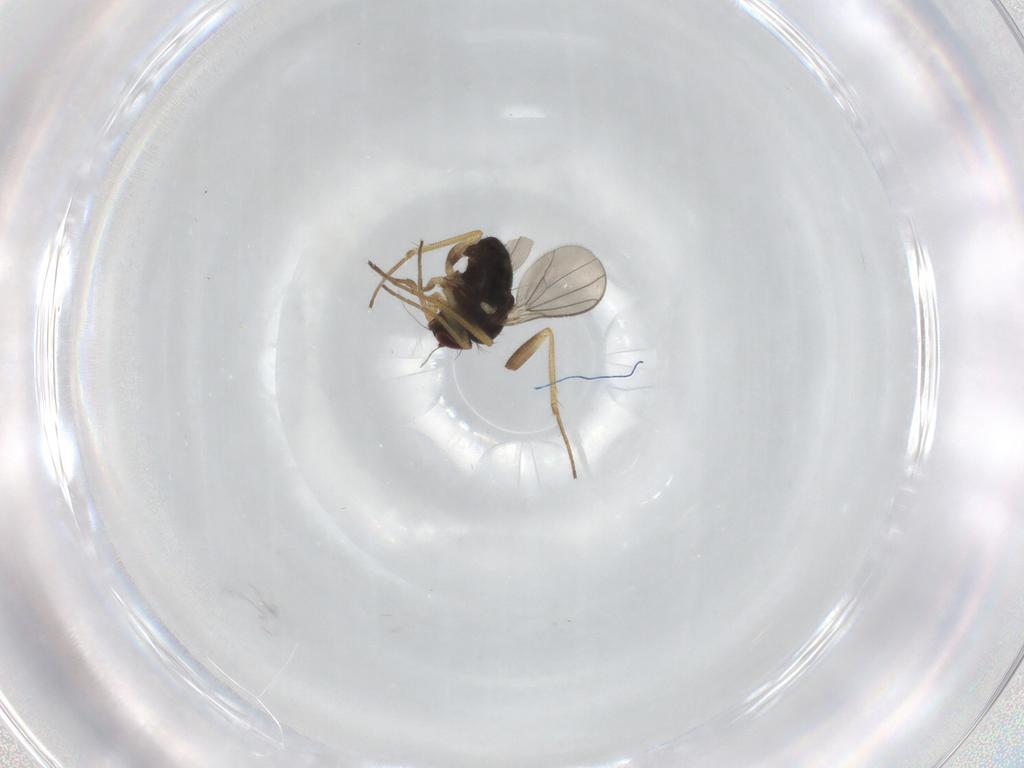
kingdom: Animalia
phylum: Arthropoda
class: Insecta
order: Diptera
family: Dolichopodidae
